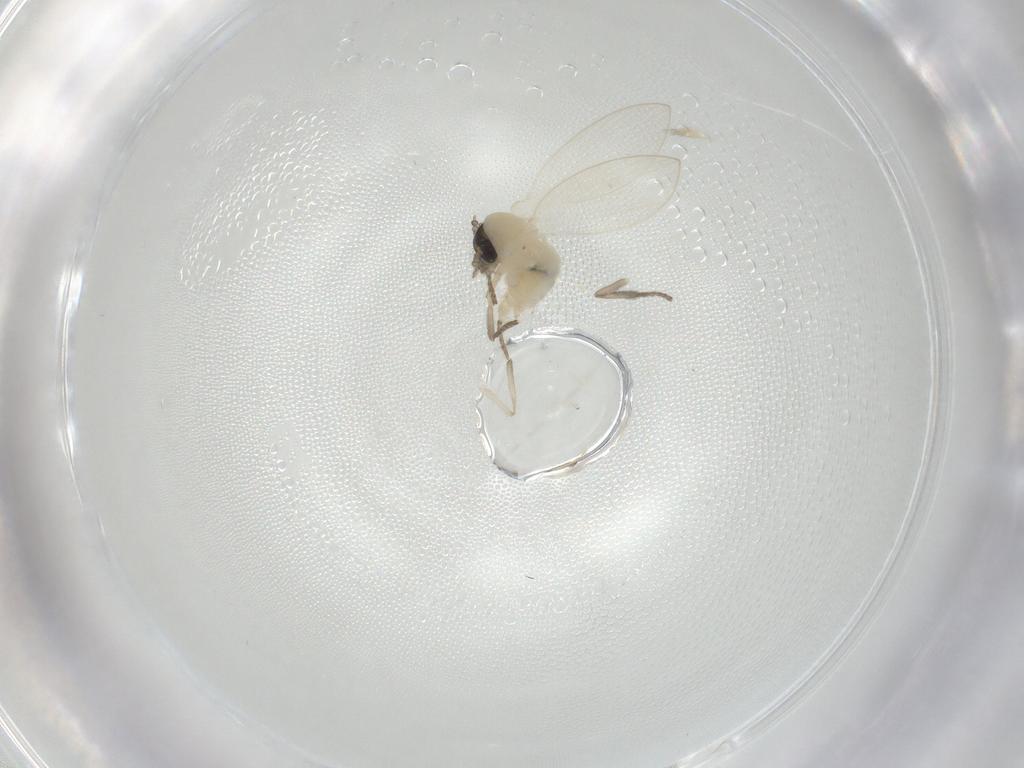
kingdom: Animalia
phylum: Arthropoda
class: Insecta
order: Diptera
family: Psychodidae
